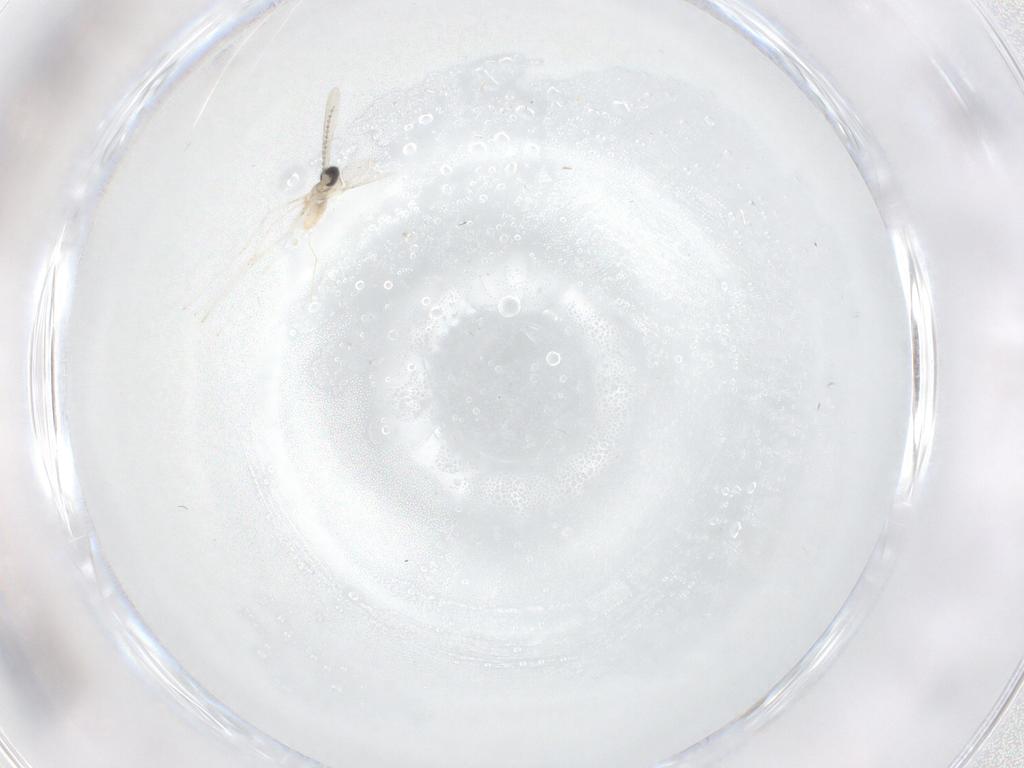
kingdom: Animalia
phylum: Arthropoda
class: Insecta
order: Diptera
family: Cecidomyiidae
